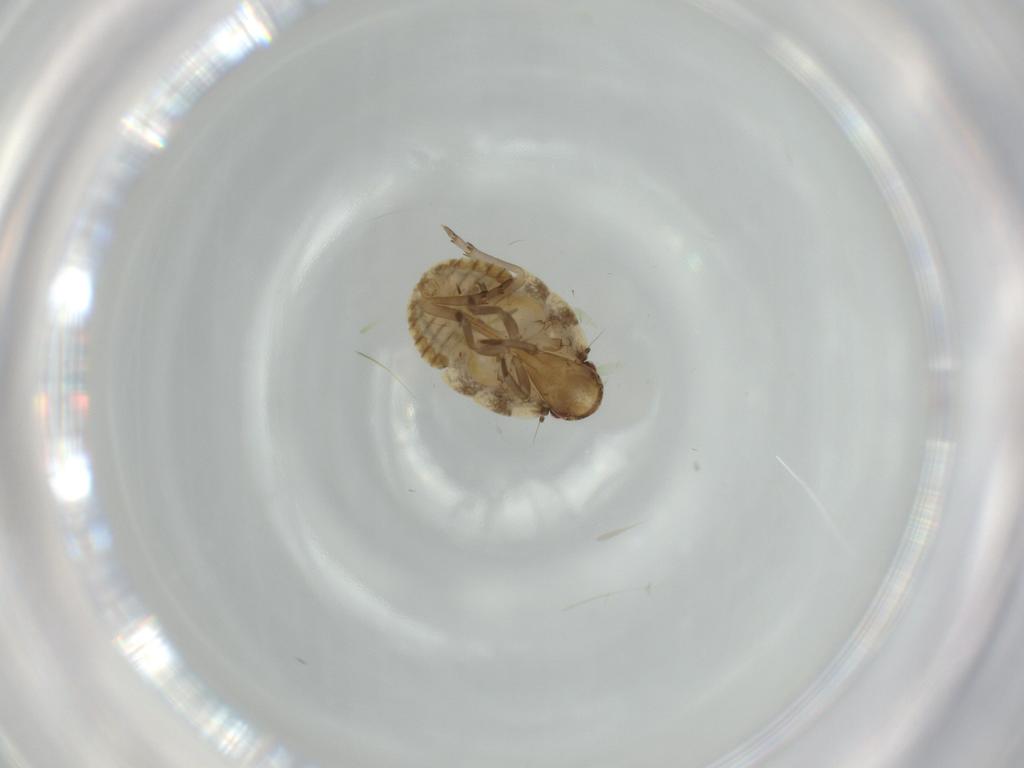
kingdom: Animalia
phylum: Arthropoda
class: Insecta
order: Hemiptera
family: Flatidae
